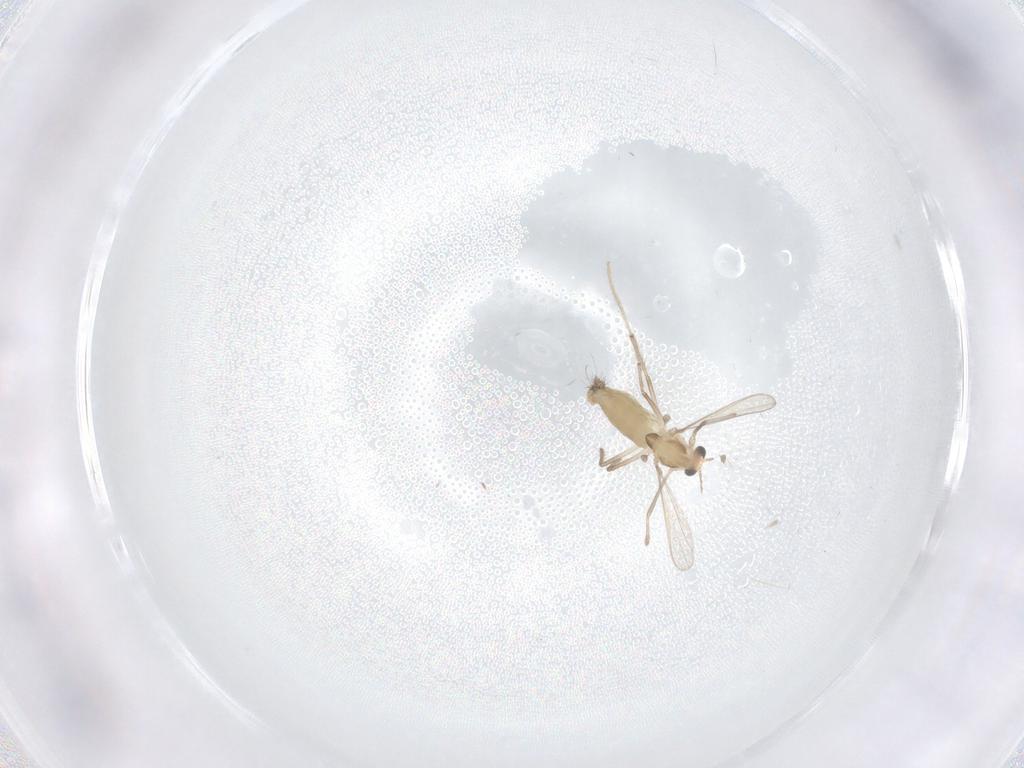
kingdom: Animalia
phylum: Arthropoda
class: Insecta
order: Diptera
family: Chironomidae
